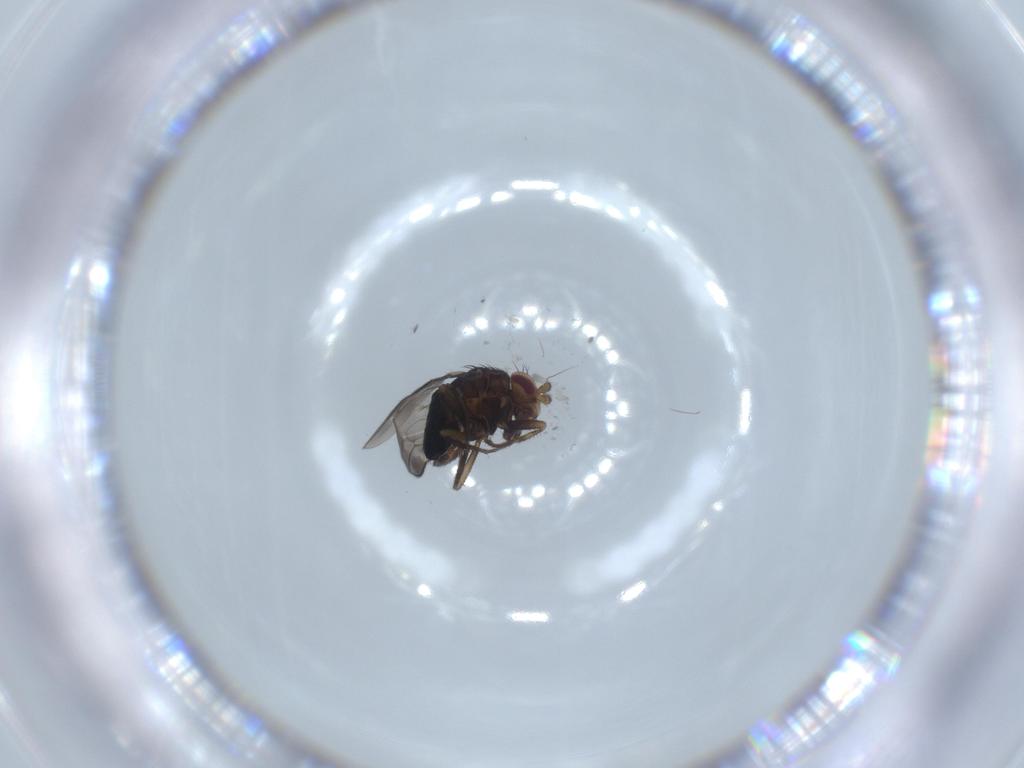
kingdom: Animalia
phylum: Arthropoda
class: Insecta
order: Diptera
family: Sphaeroceridae
